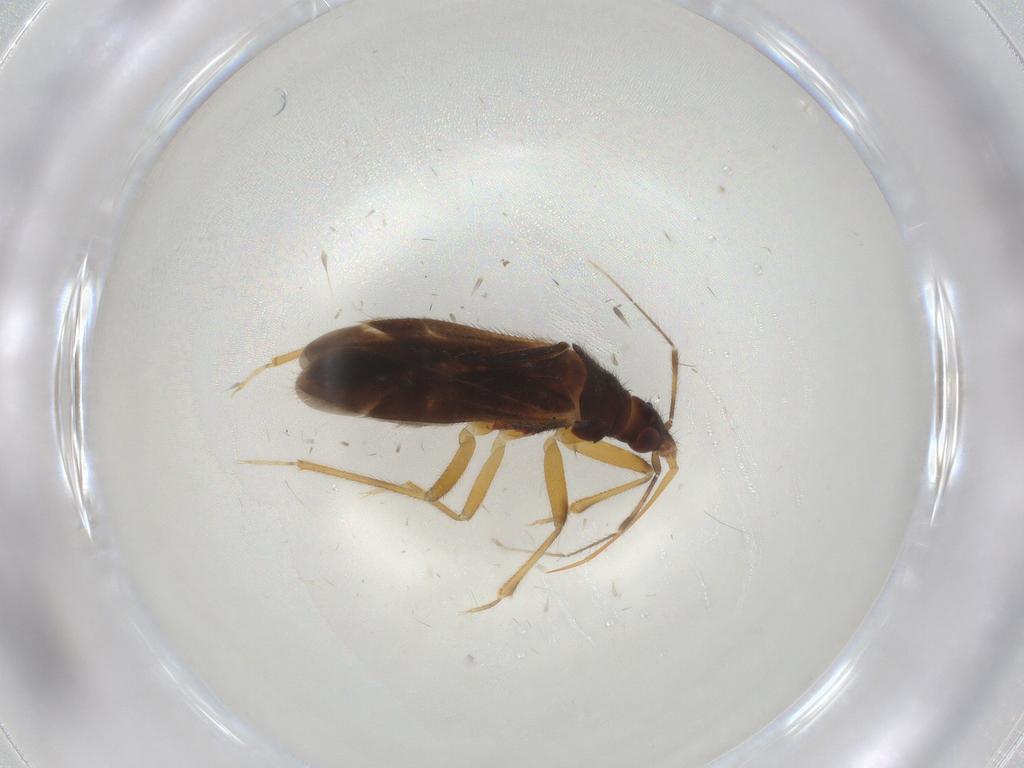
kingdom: Animalia
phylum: Arthropoda
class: Insecta
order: Hemiptera
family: Anthocoridae
